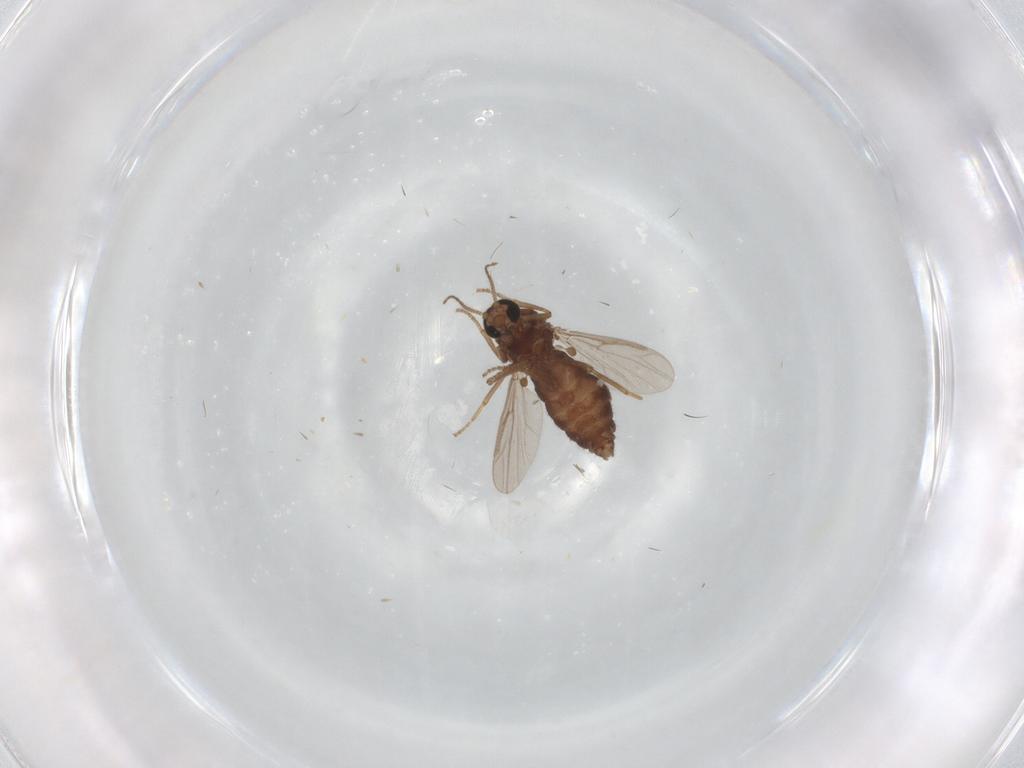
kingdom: Animalia
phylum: Arthropoda
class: Insecta
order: Diptera
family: Ceratopogonidae
